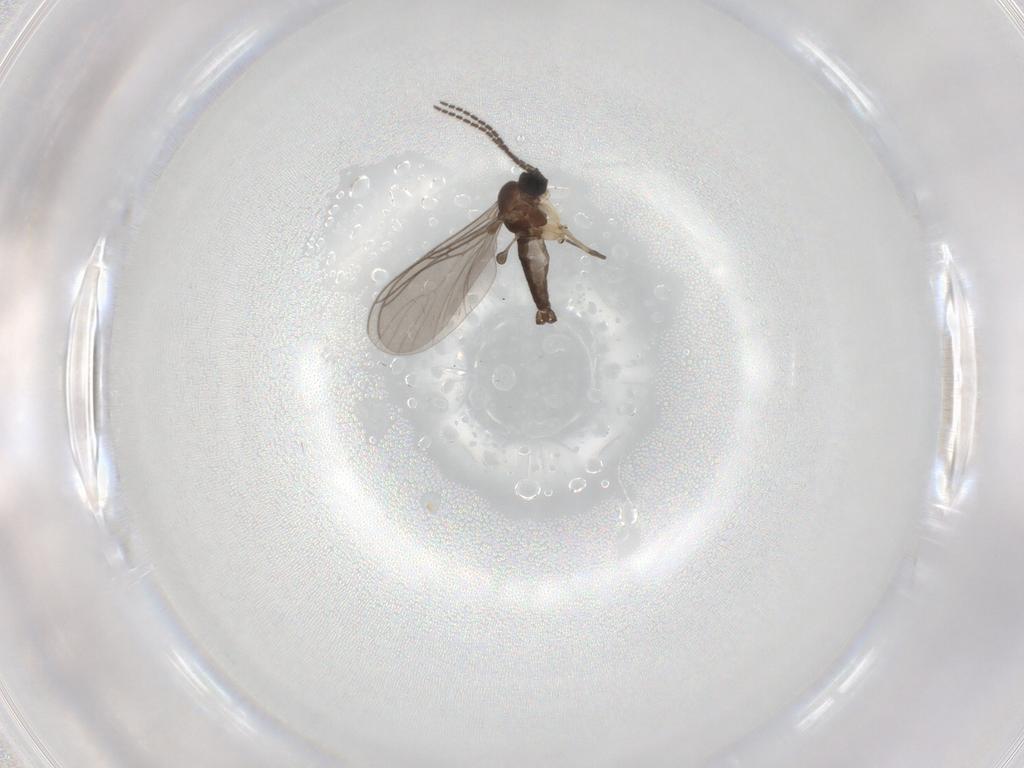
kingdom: Animalia
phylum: Arthropoda
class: Insecta
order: Diptera
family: Sciaridae
